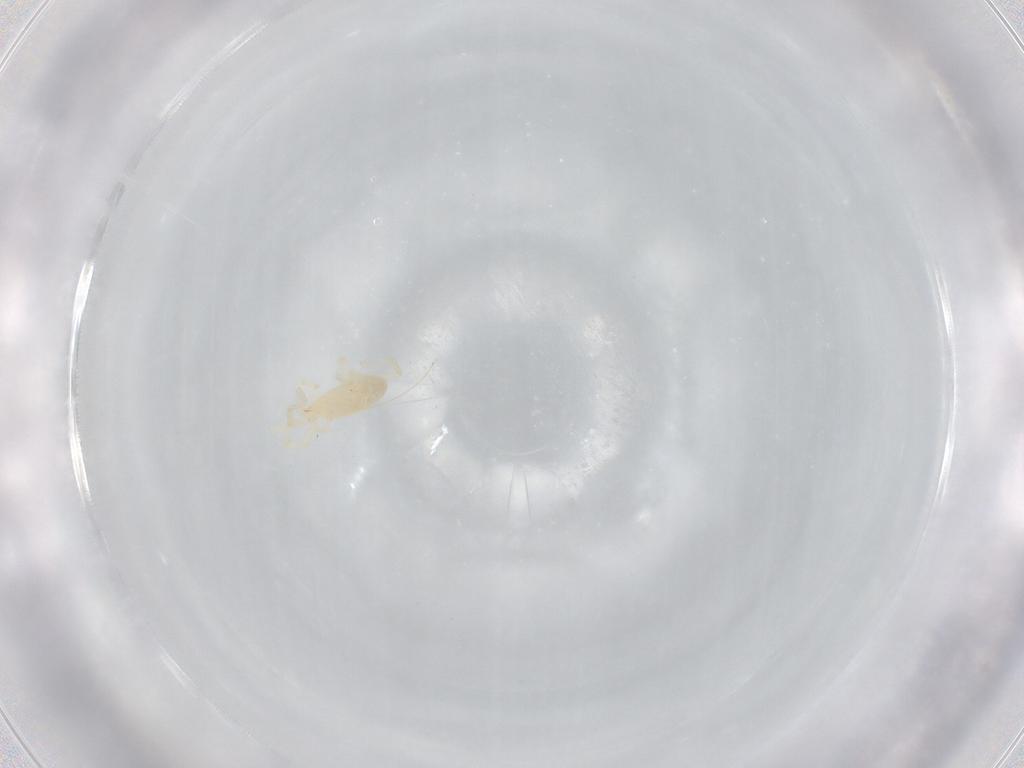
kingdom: Animalia
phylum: Arthropoda
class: Arachnida
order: Trombidiformes
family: Erythraeidae
